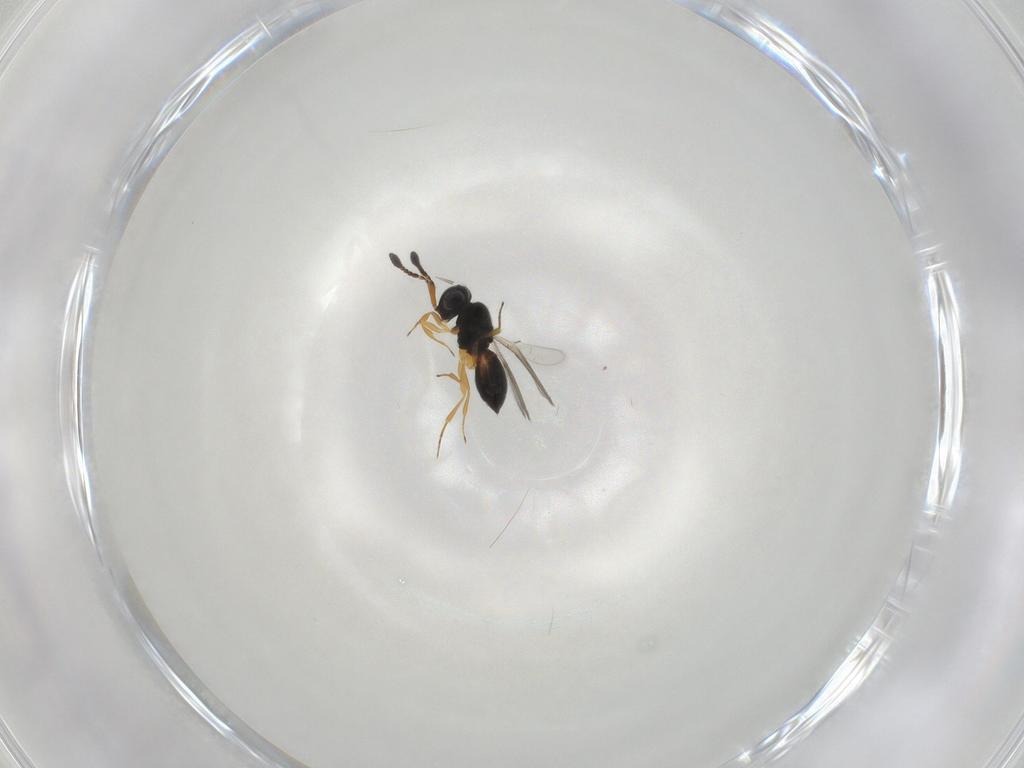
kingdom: Animalia
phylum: Arthropoda
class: Insecta
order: Hymenoptera
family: Scelionidae
